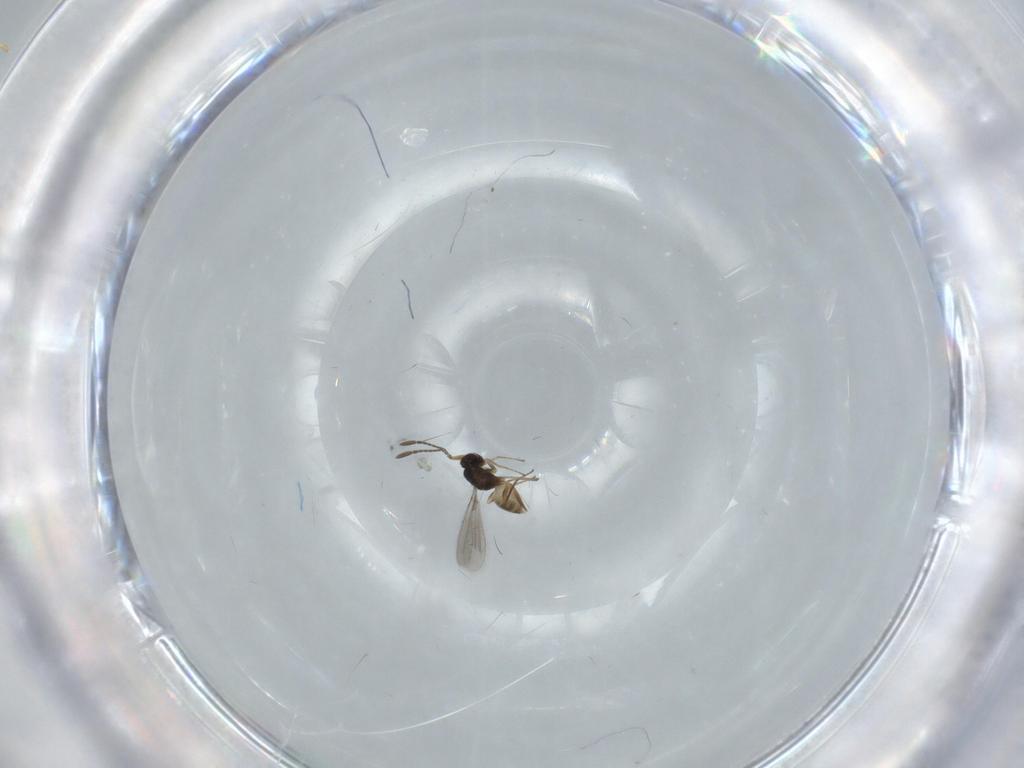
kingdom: Animalia
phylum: Arthropoda
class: Insecta
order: Hymenoptera
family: Mymaridae
